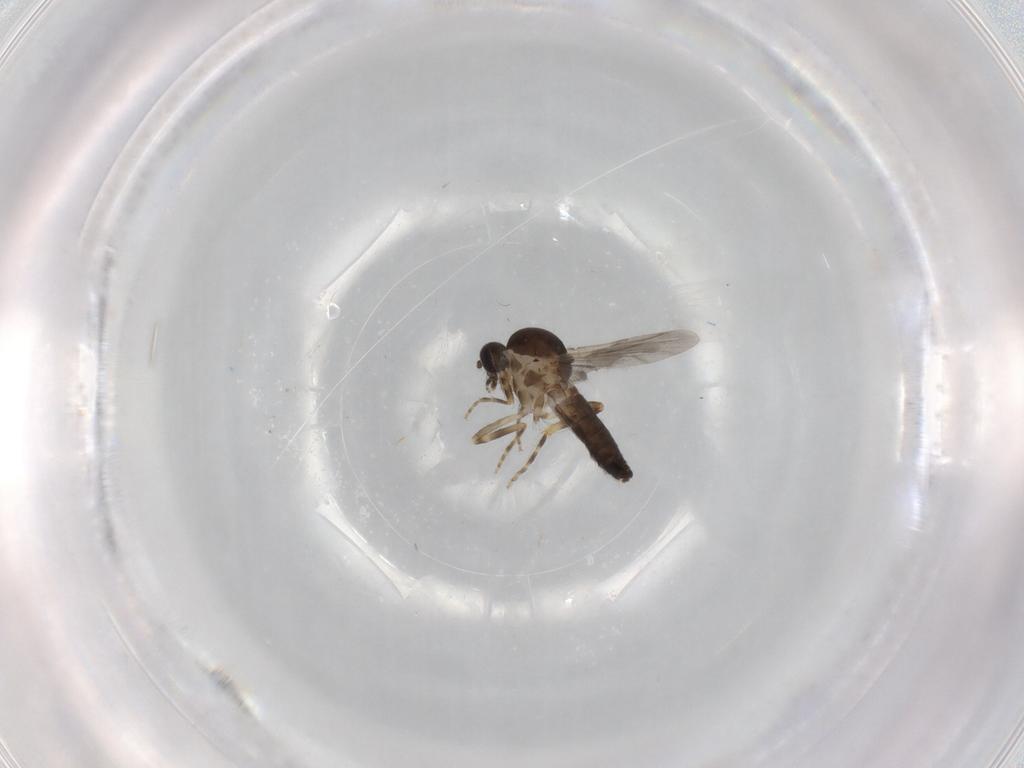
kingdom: Animalia
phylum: Arthropoda
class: Insecta
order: Diptera
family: Ceratopogonidae
